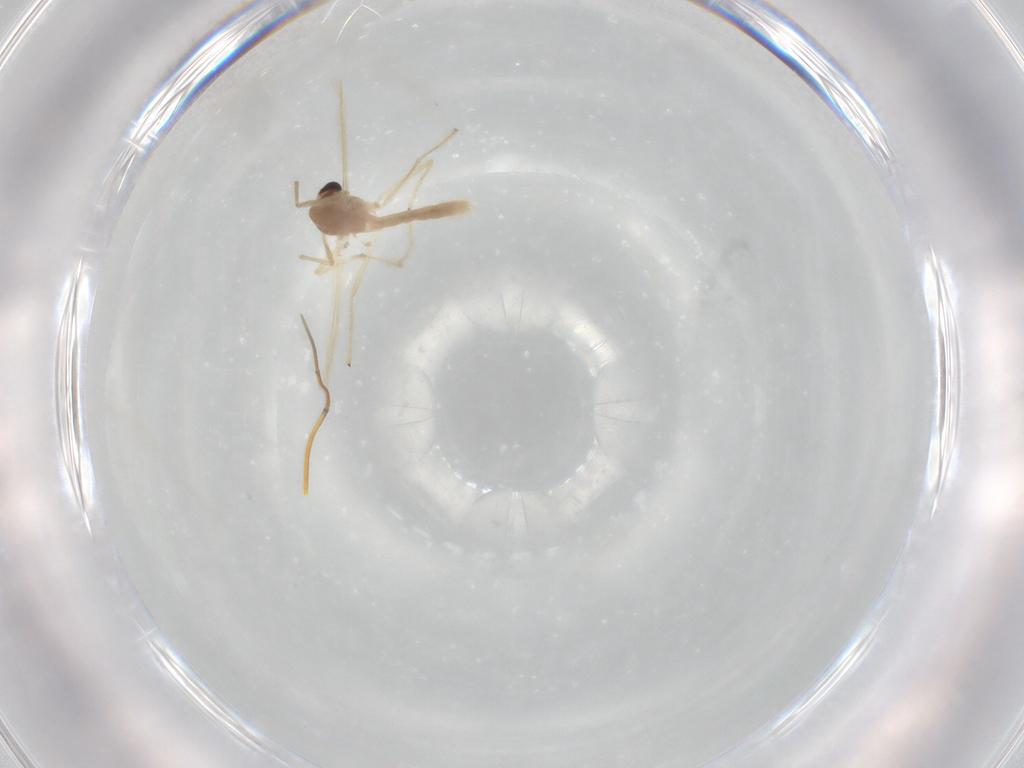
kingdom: Animalia
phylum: Arthropoda
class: Insecta
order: Diptera
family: Chironomidae
